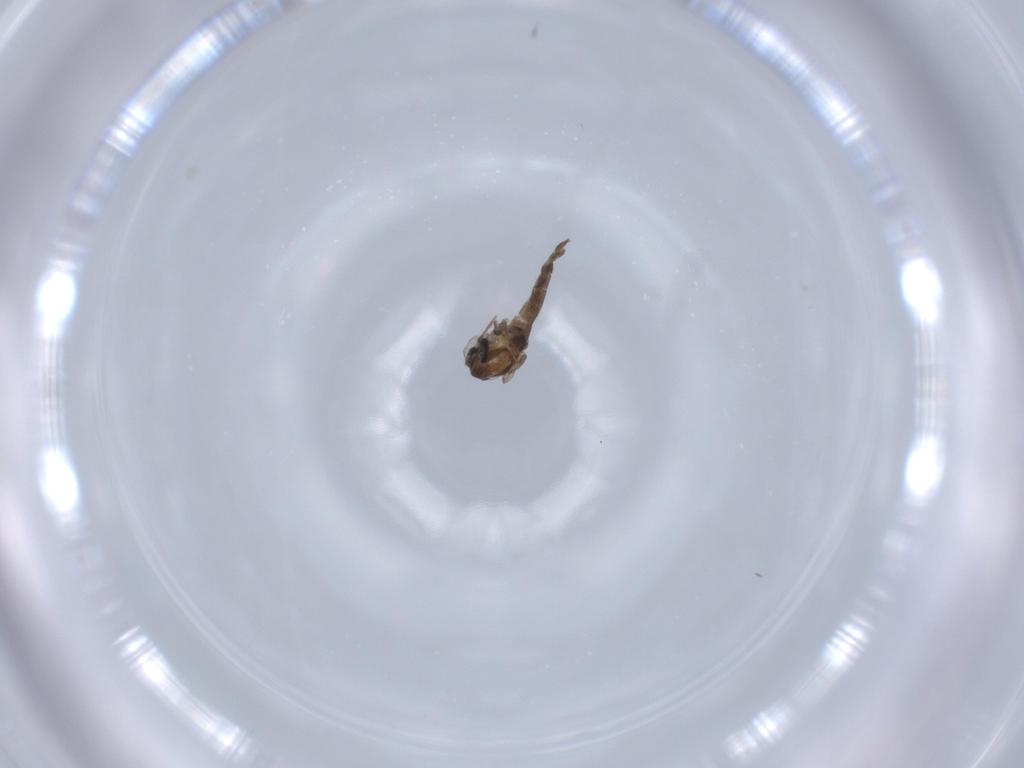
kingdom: Animalia
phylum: Arthropoda
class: Insecta
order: Diptera
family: Chironomidae
